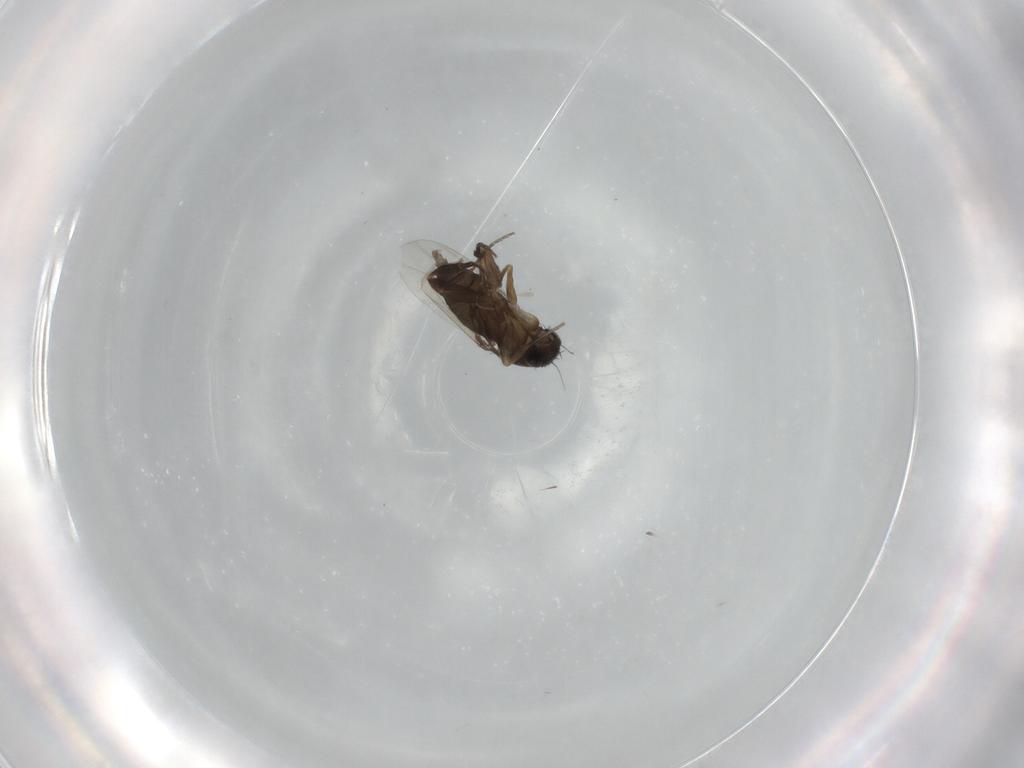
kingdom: Animalia
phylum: Arthropoda
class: Insecta
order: Diptera
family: Phoridae
